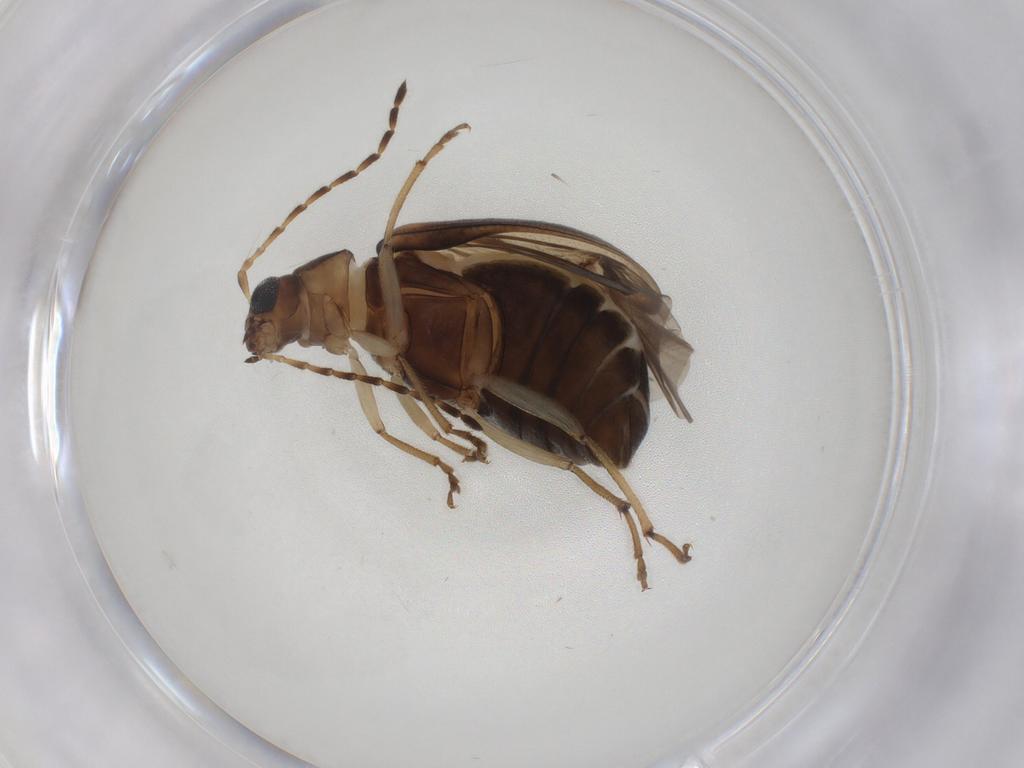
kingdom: Animalia
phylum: Arthropoda
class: Insecta
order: Coleoptera
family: Chrysomelidae
